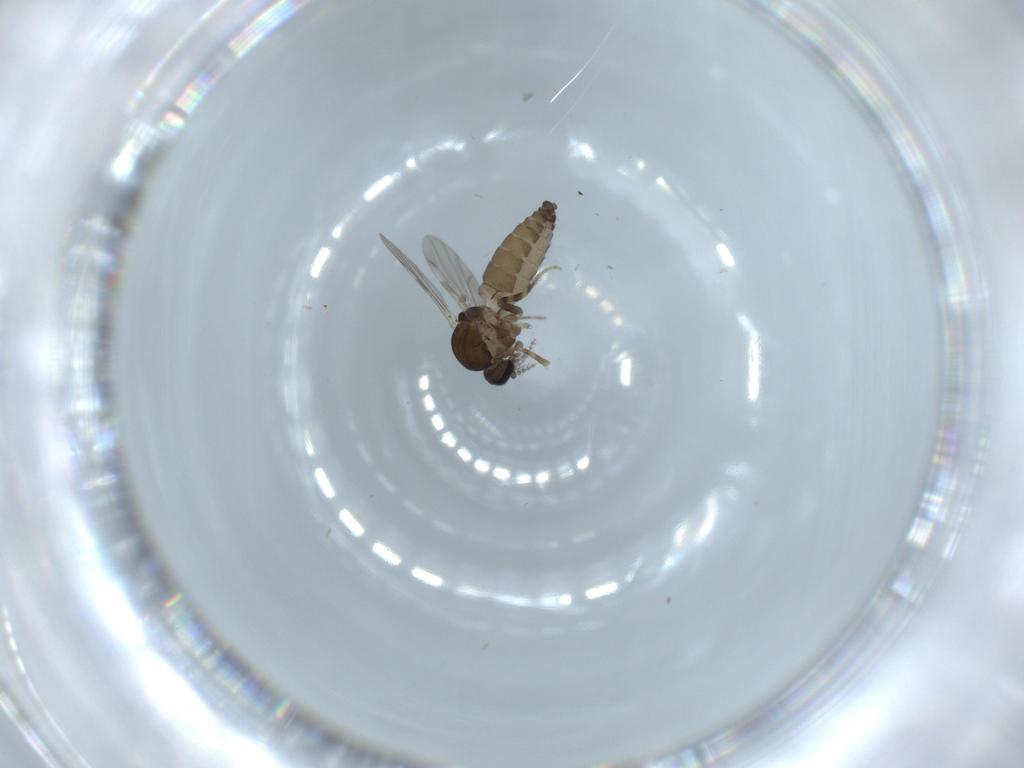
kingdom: Animalia
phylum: Arthropoda
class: Insecta
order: Diptera
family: Ceratopogonidae
